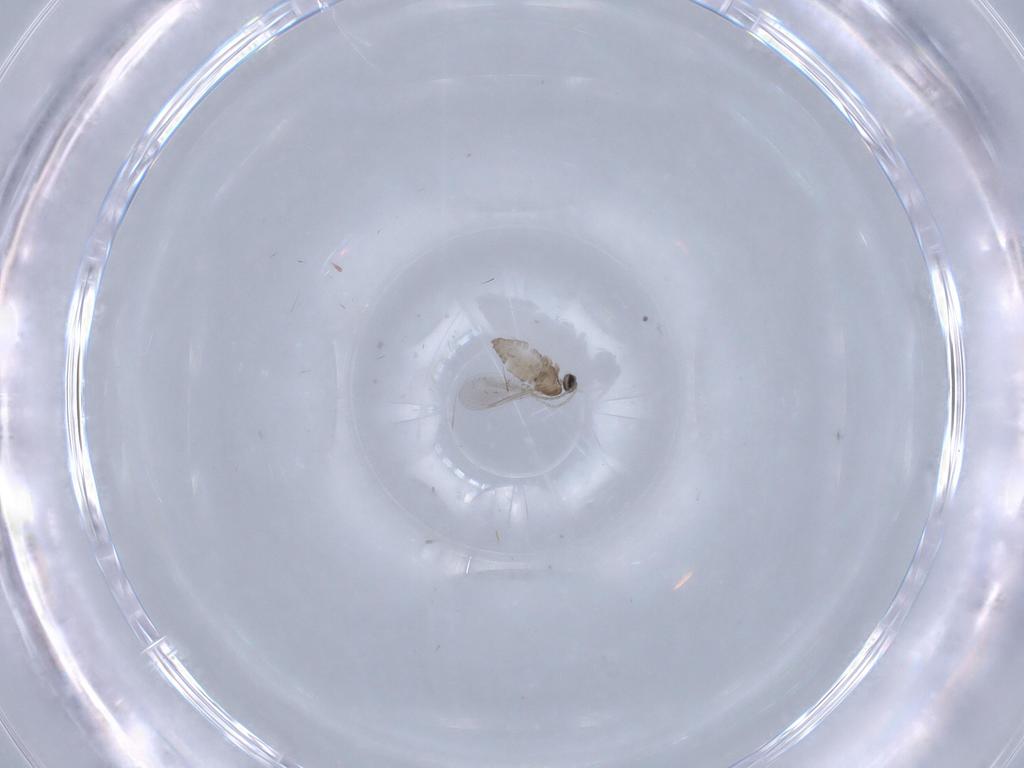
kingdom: Animalia
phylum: Arthropoda
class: Insecta
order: Diptera
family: Cecidomyiidae
